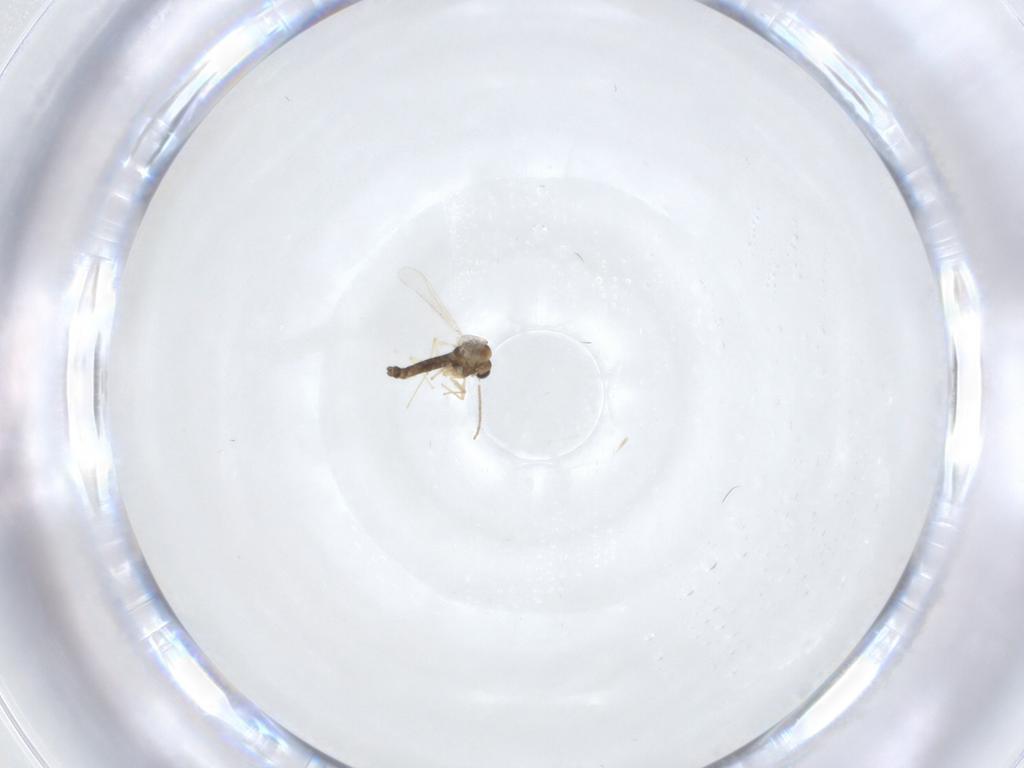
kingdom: Animalia
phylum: Arthropoda
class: Insecta
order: Diptera
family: Chironomidae
